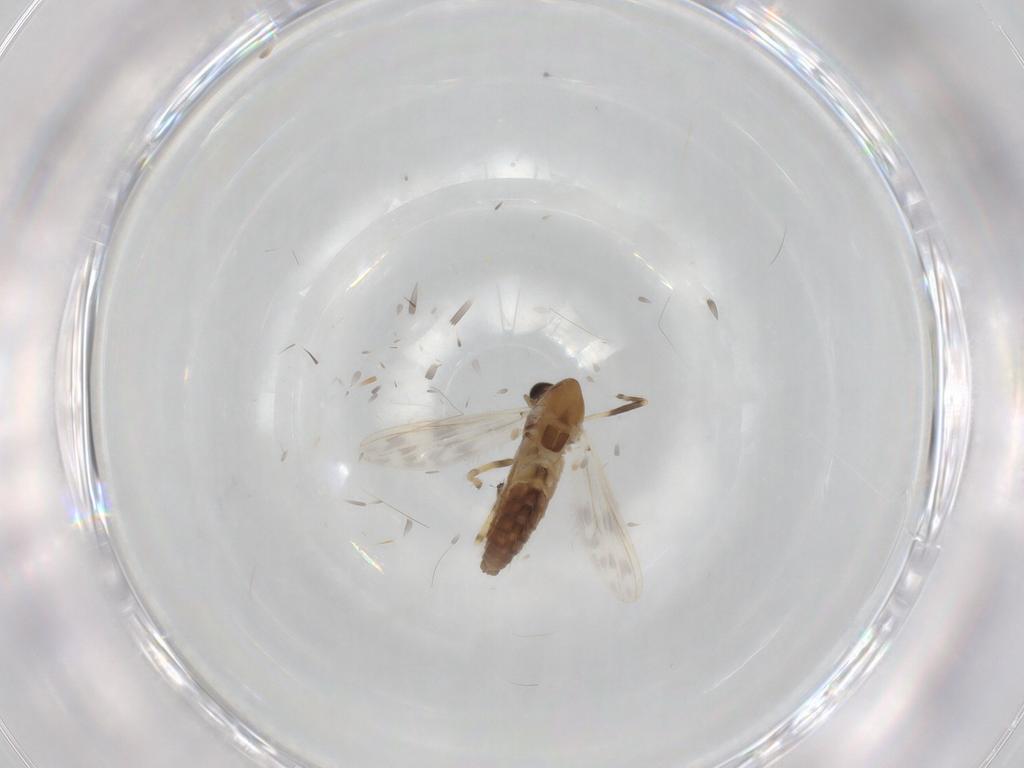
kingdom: Animalia
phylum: Arthropoda
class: Insecta
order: Diptera
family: Chironomidae
